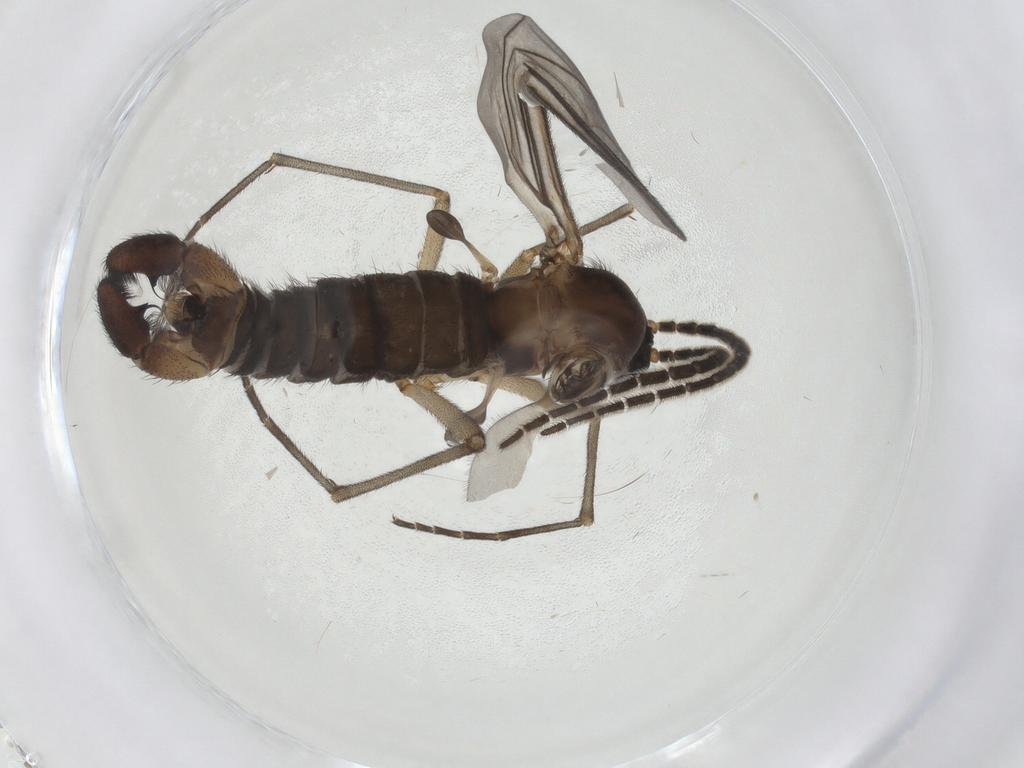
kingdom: Animalia
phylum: Arthropoda
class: Insecta
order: Diptera
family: Sciaridae
